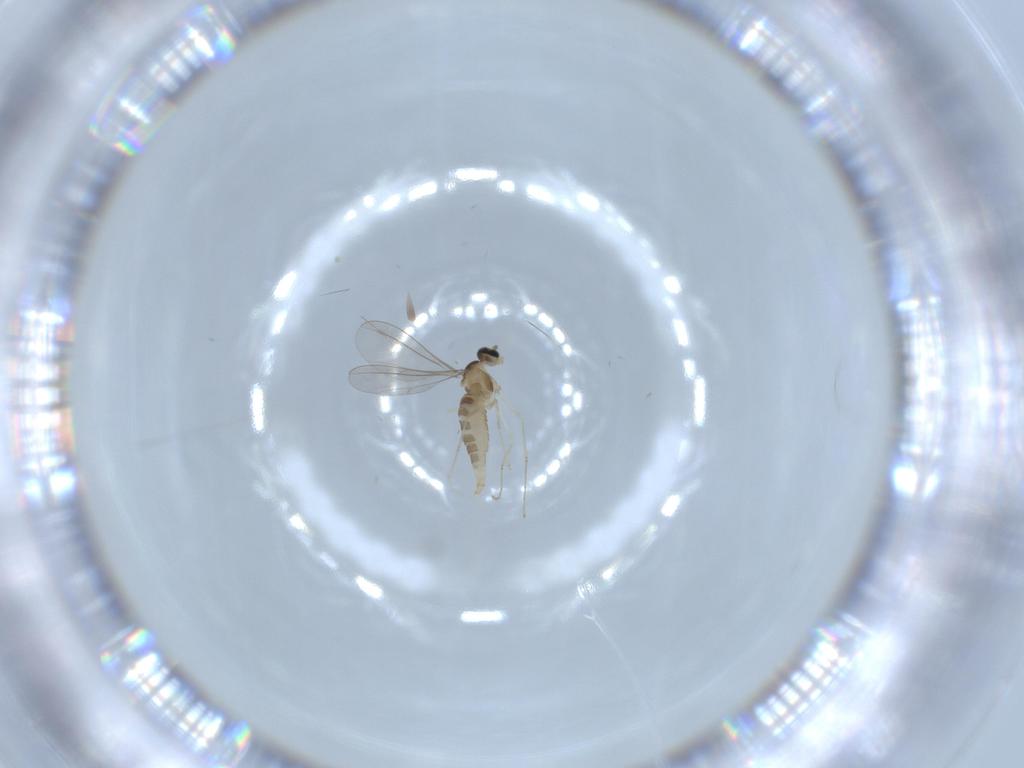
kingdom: Animalia
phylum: Arthropoda
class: Insecta
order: Diptera
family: Cecidomyiidae
